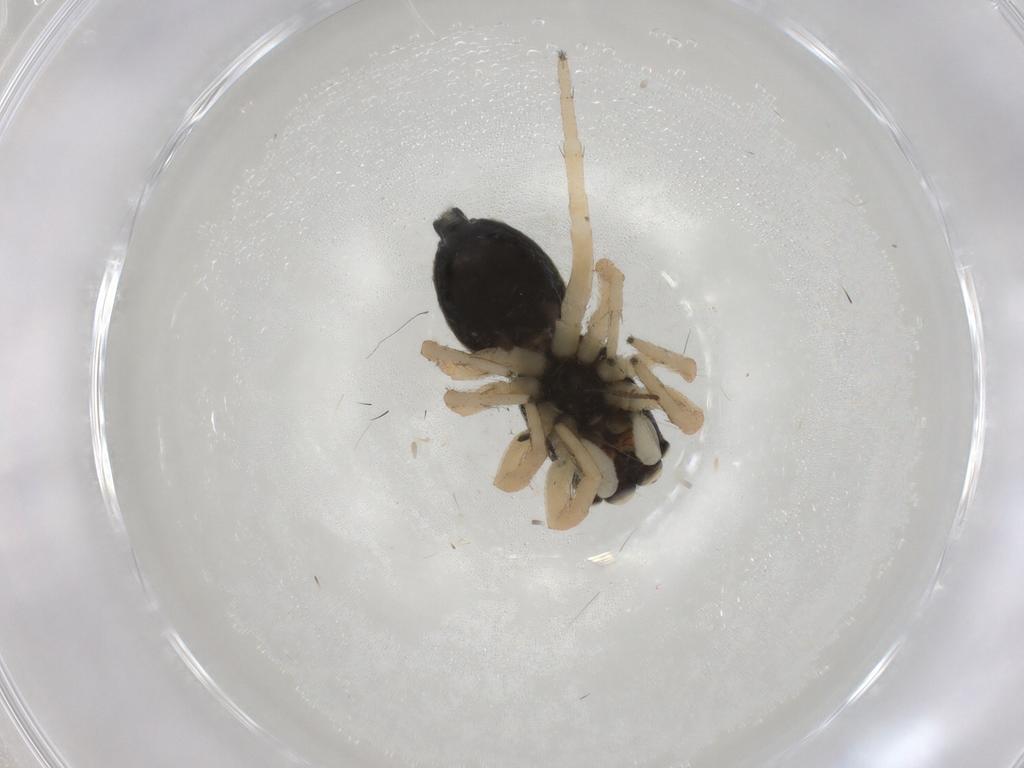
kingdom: Animalia
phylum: Arthropoda
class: Arachnida
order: Araneae
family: Salticidae
